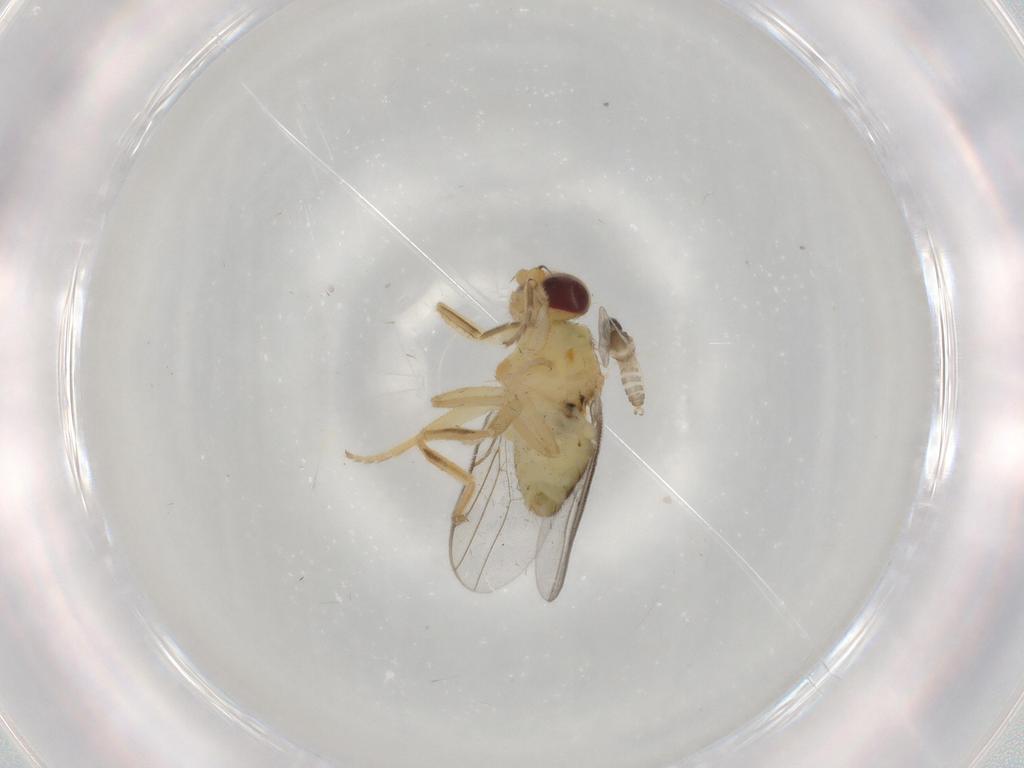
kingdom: Animalia
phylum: Arthropoda
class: Insecta
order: Diptera
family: Chloropidae
